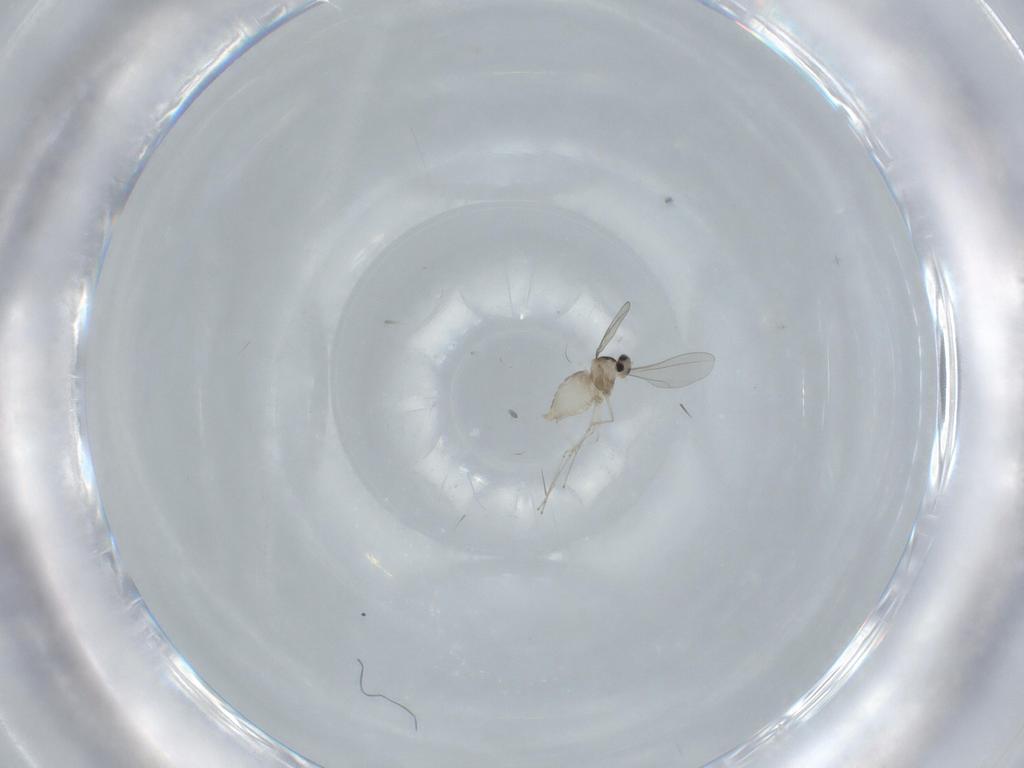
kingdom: Animalia
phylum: Arthropoda
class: Insecta
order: Diptera
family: Cecidomyiidae
